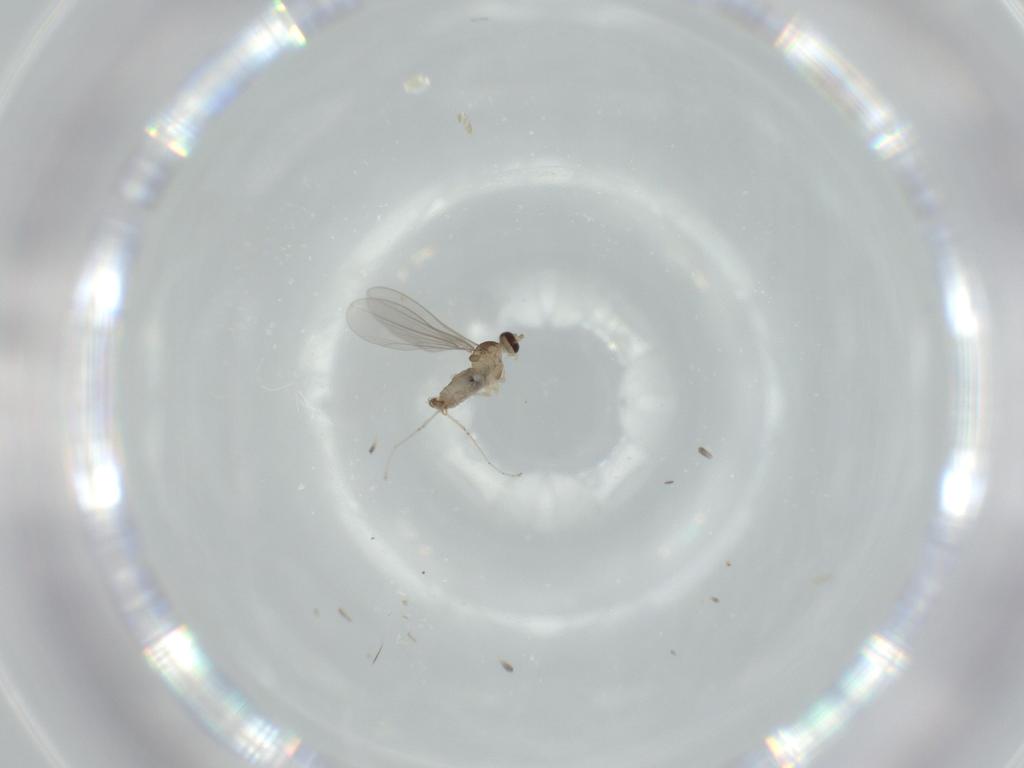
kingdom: Animalia
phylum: Arthropoda
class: Insecta
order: Diptera
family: Cecidomyiidae
